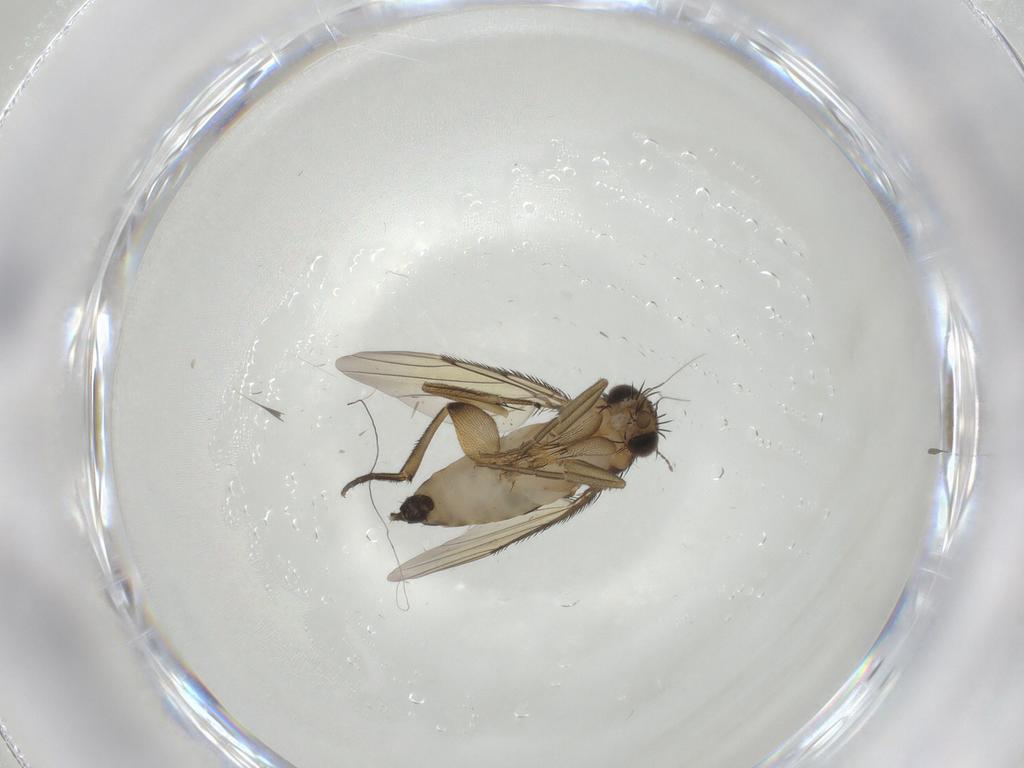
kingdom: Animalia
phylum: Arthropoda
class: Insecta
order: Diptera
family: Phoridae
